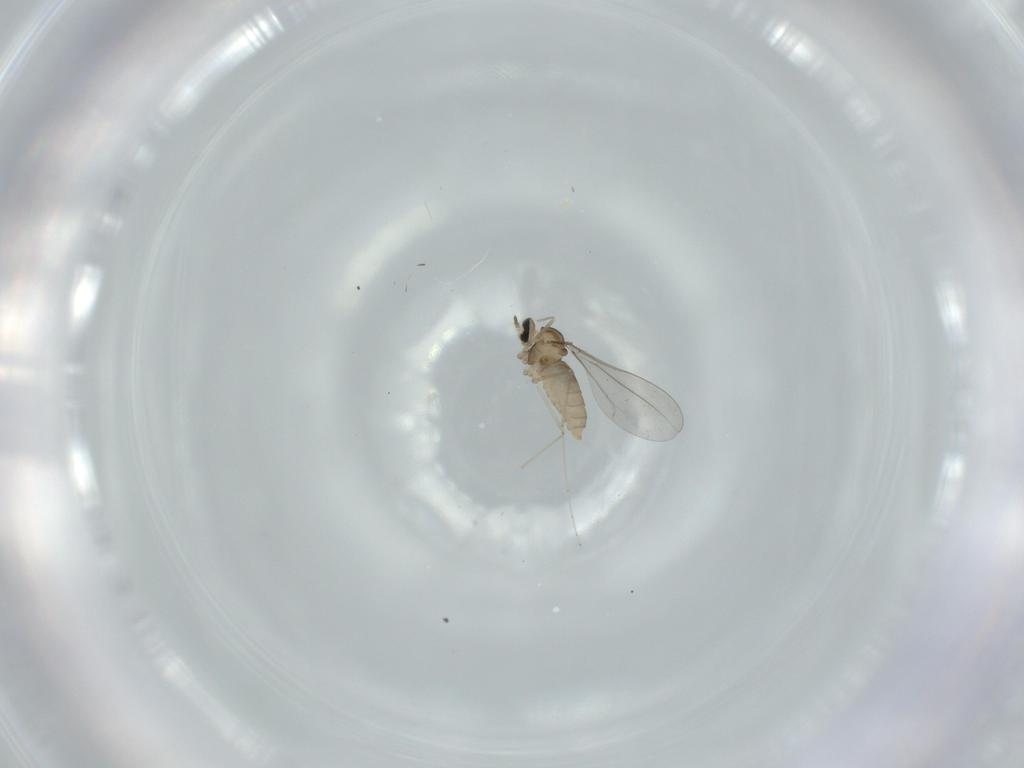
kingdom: Animalia
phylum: Arthropoda
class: Insecta
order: Diptera
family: Cecidomyiidae
